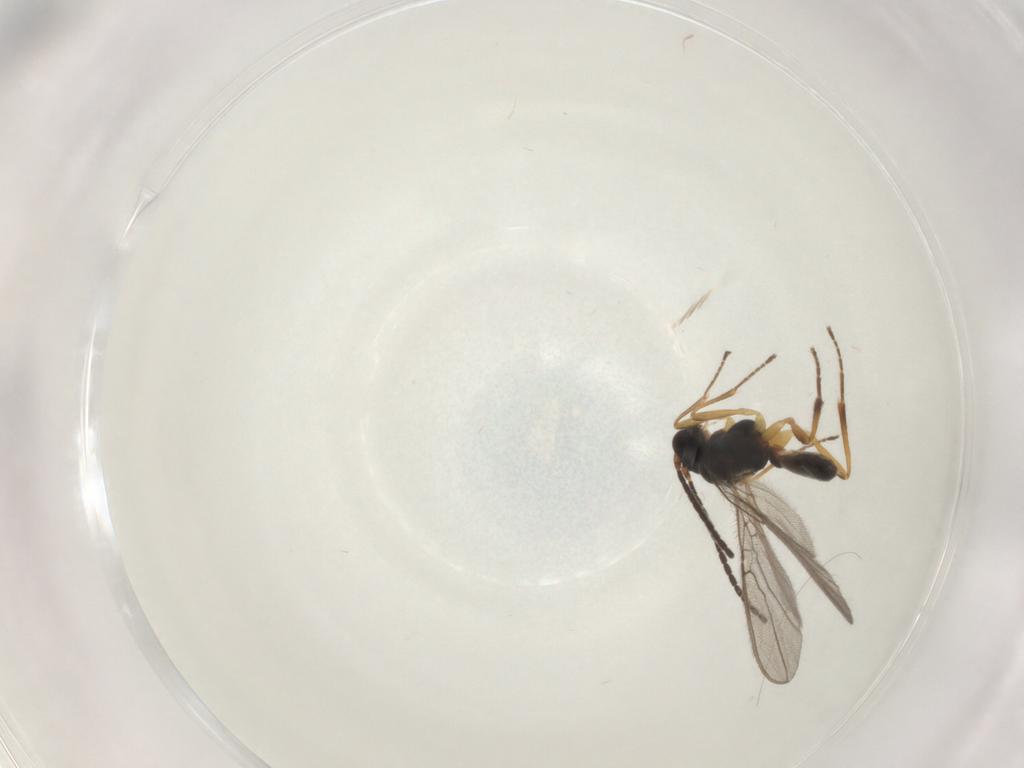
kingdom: Animalia
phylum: Arthropoda
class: Insecta
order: Hymenoptera
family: Braconidae
